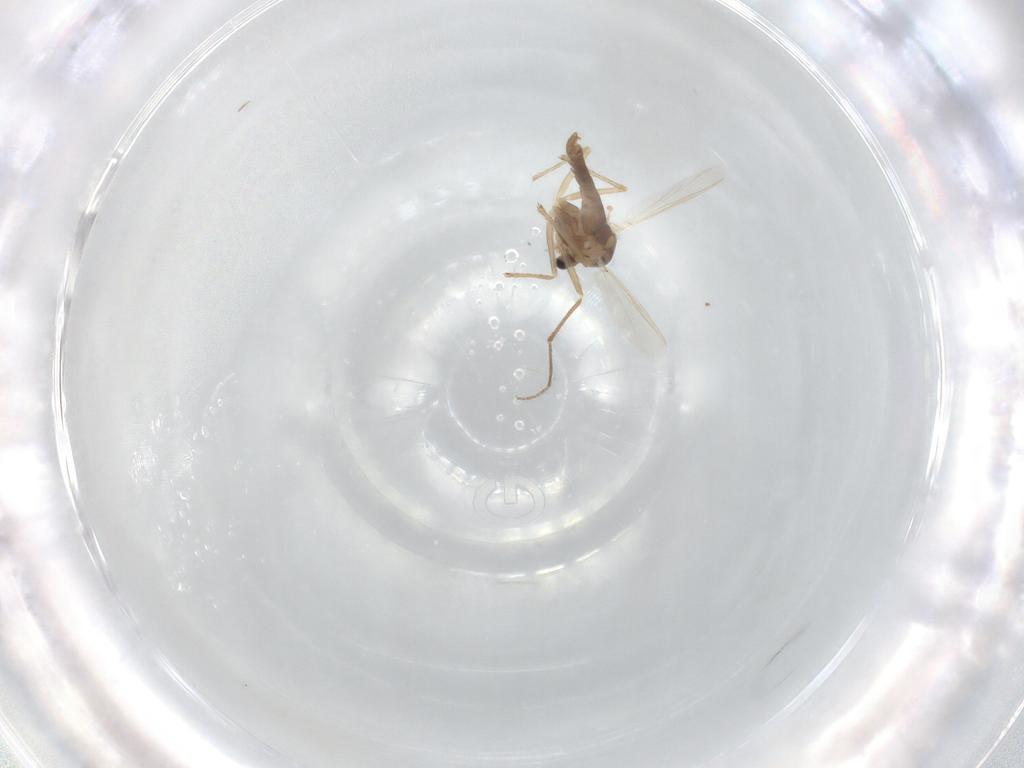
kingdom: Animalia
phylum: Arthropoda
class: Insecta
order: Diptera
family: Chironomidae
